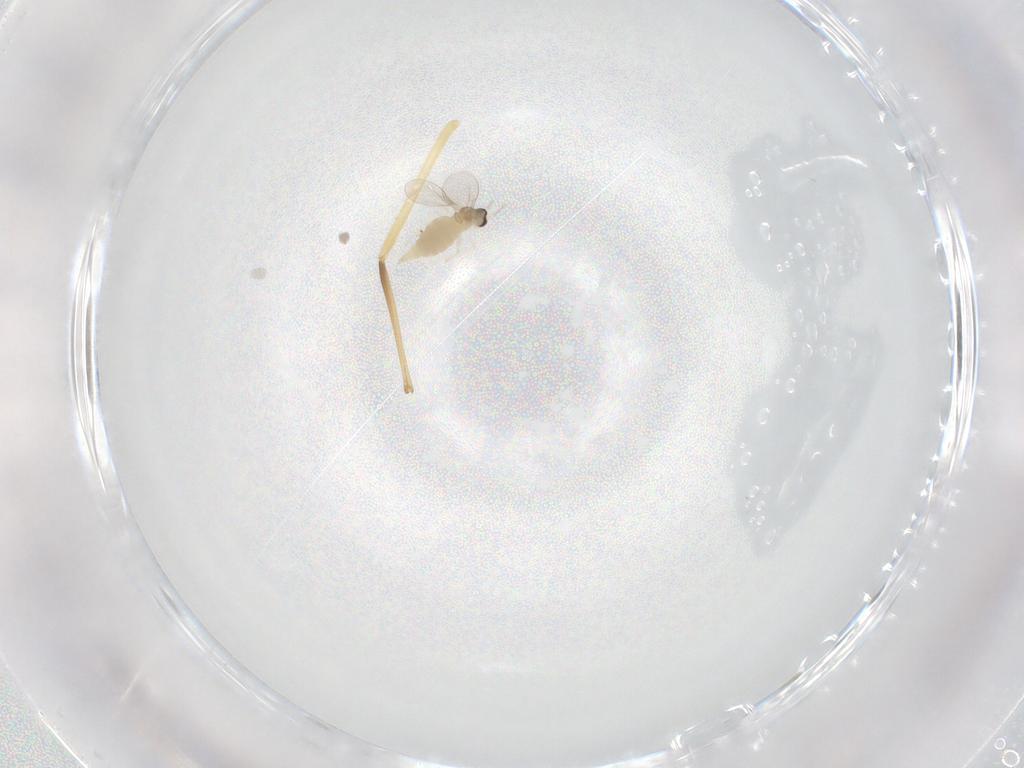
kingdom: Animalia
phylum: Arthropoda
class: Insecta
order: Diptera
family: Cecidomyiidae
